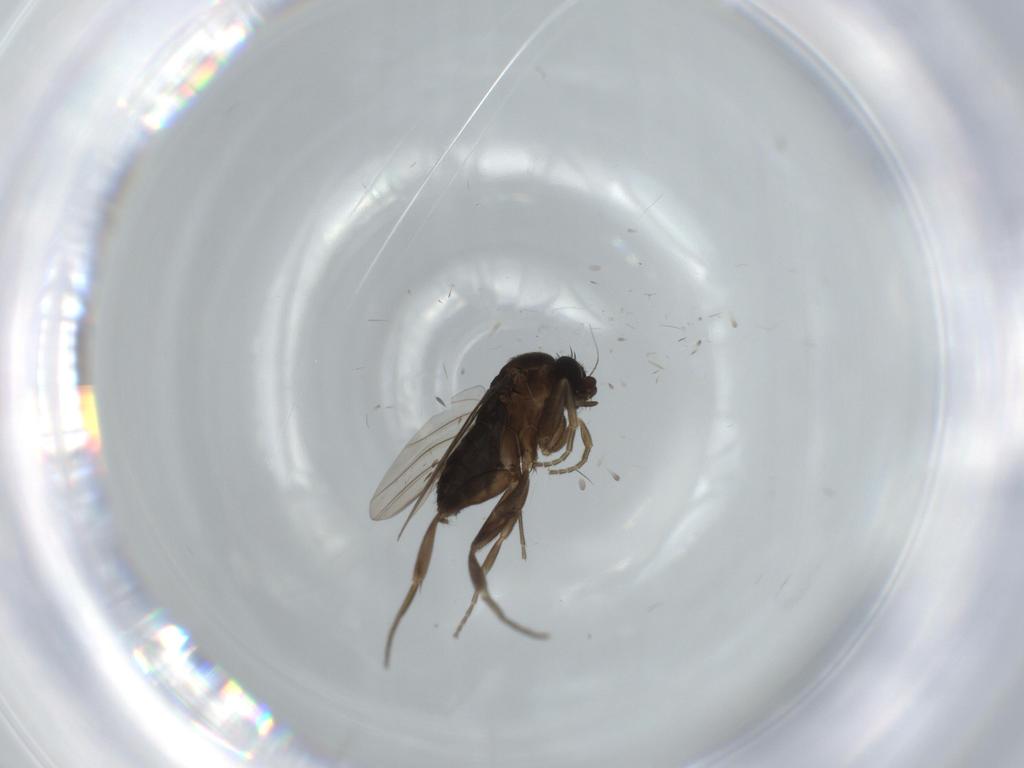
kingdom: Animalia
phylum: Arthropoda
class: Insecta
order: Diptera
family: Phoridae
